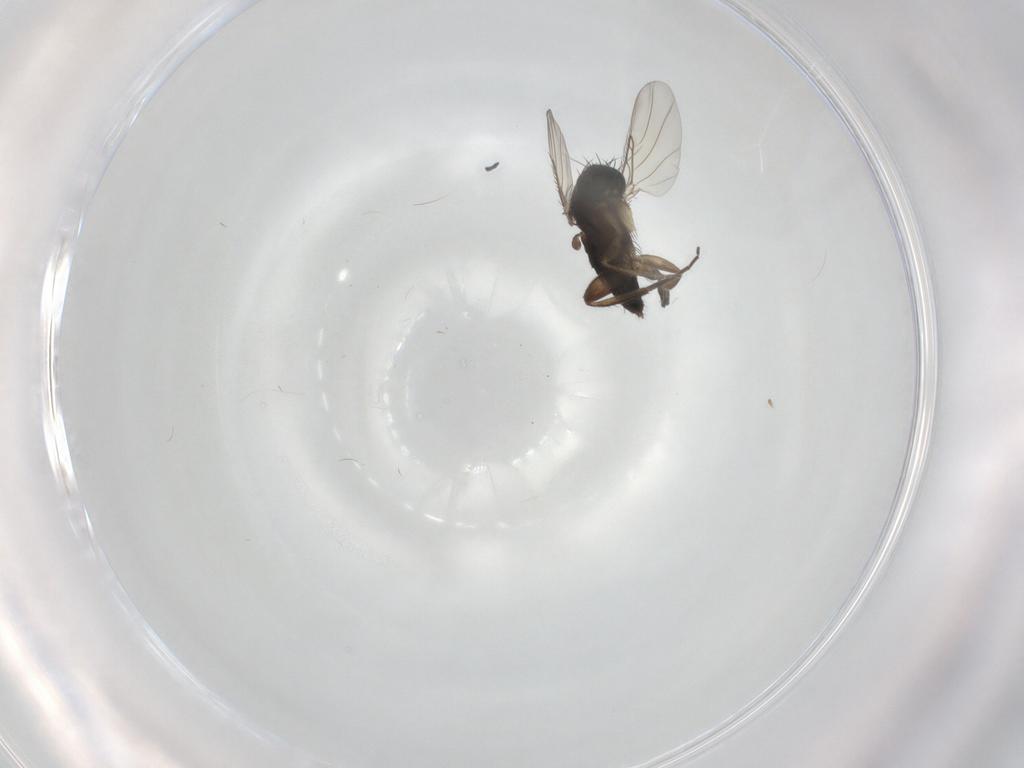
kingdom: Animalia
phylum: Arthropoda
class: Insecta
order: Diptera
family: Phoridae
